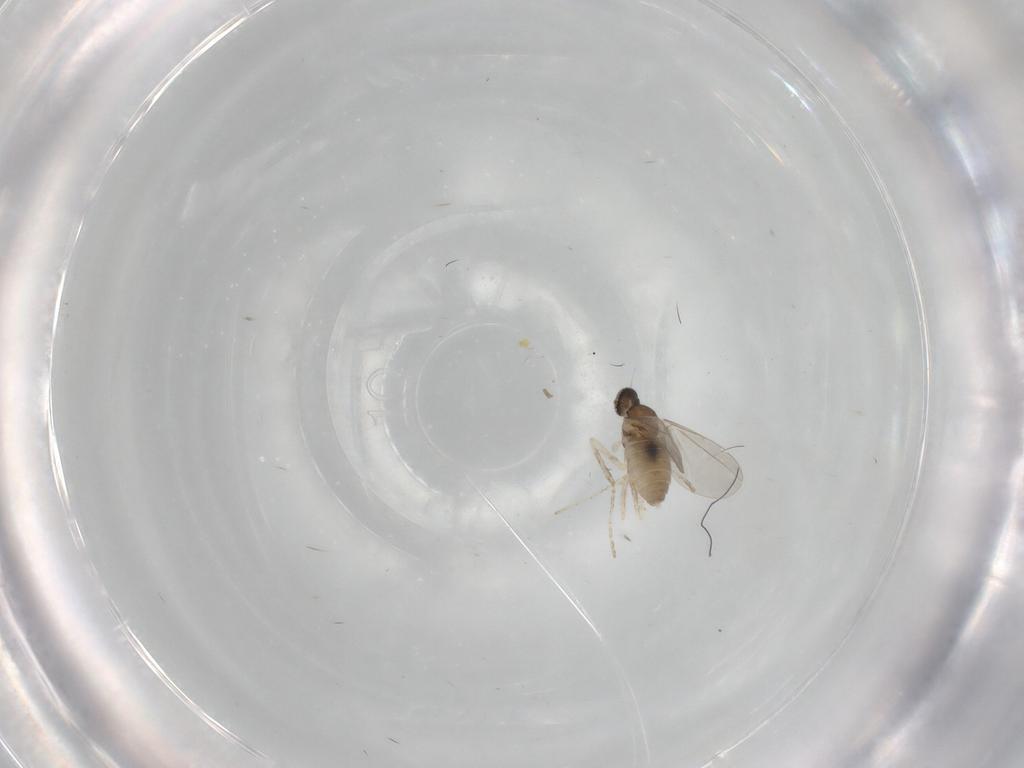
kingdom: Animalia
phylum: Arthropoda
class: Insecta
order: Diptera
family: Cecidomyiidae
